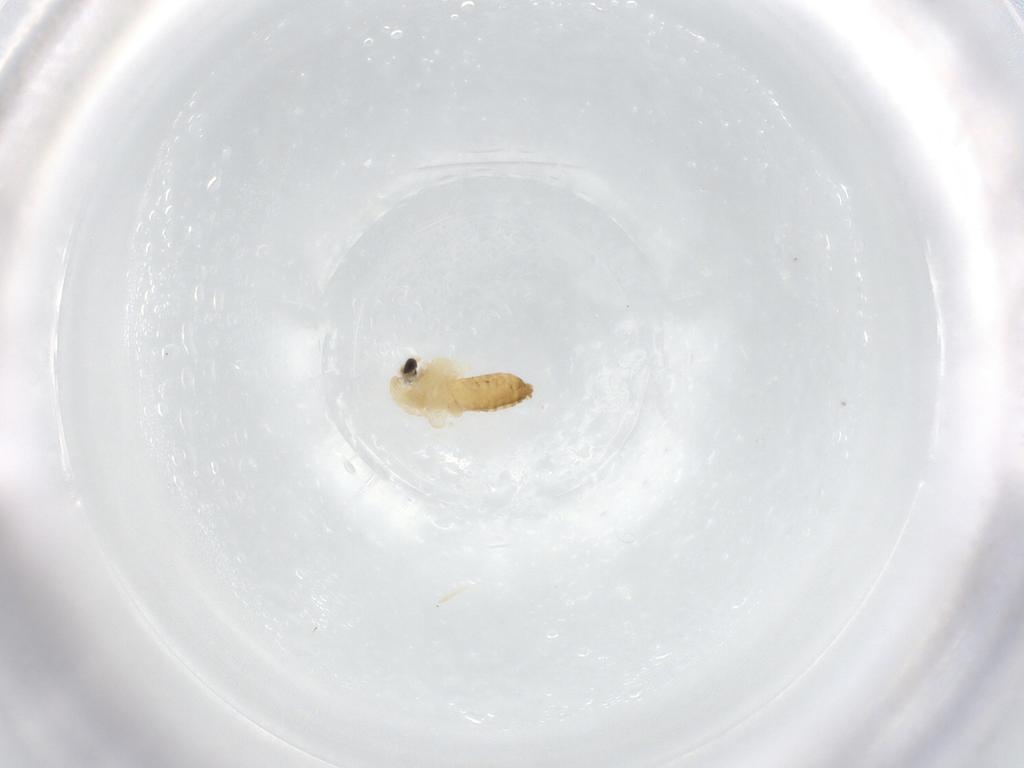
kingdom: Animalia
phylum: Arthropoda
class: Insecta
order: Diptera
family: Chironomidae
